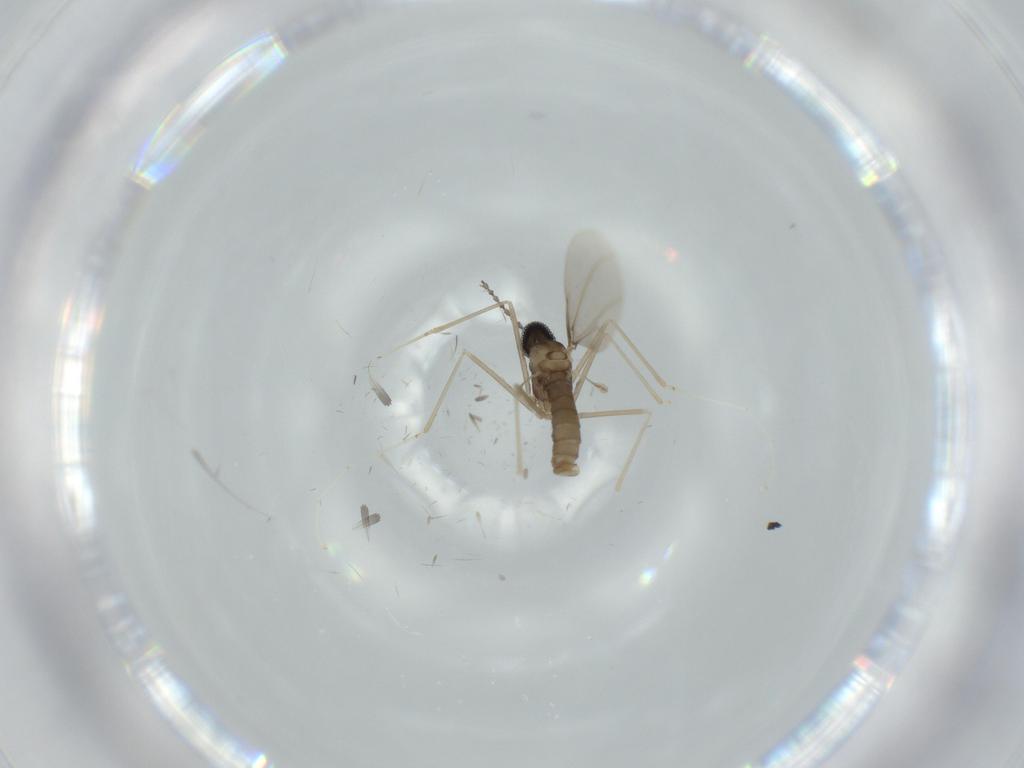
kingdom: Animalia
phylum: Arthropoda
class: Insecta
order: Diptera
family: Cecidomyiidae
